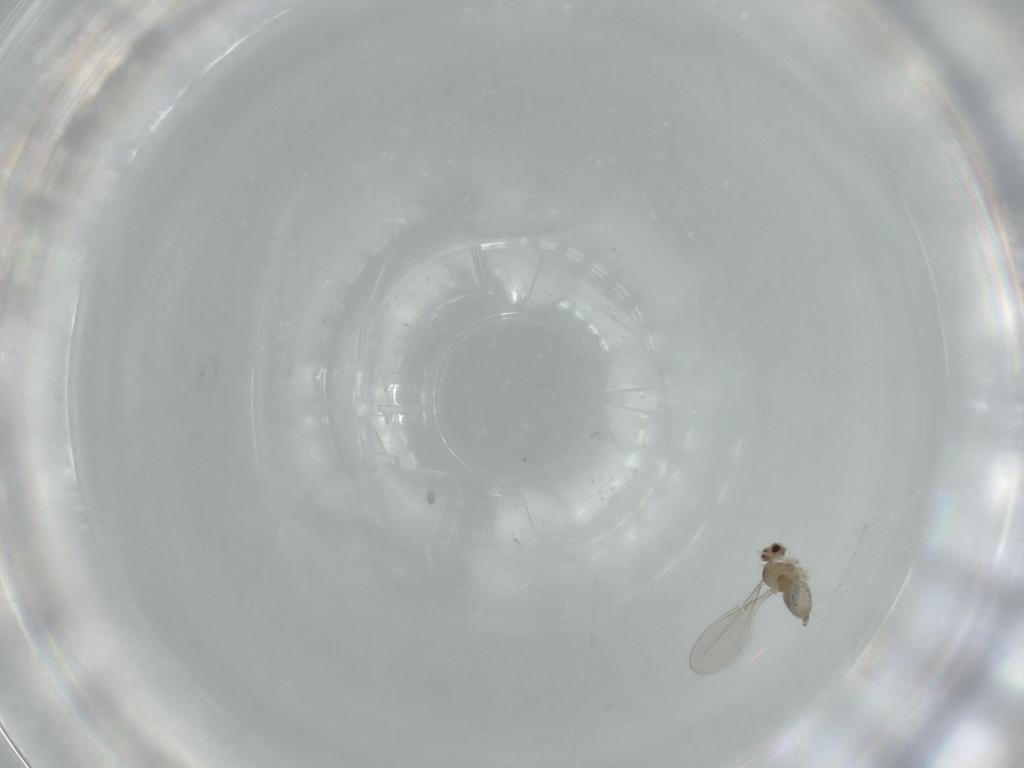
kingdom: Animalia
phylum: Arthropoda
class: Insecta
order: Diptera
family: Cecidomyiidae
